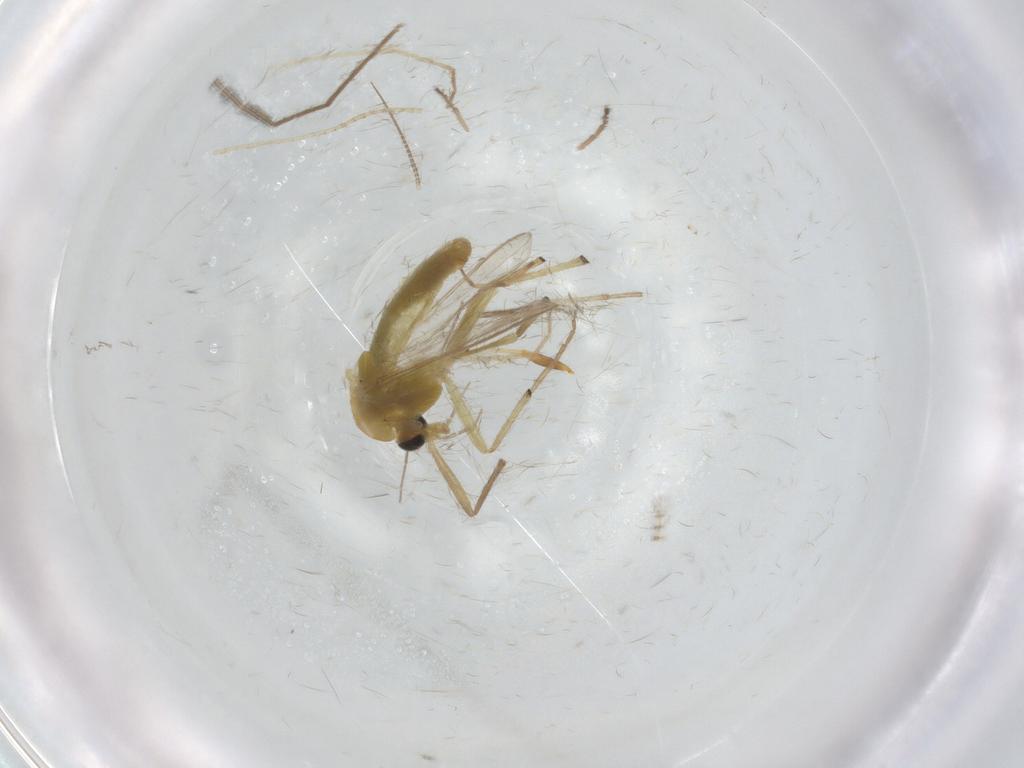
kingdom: Animalia
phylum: Arthropoda
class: Insecta
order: Diptera
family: Chironomidae
